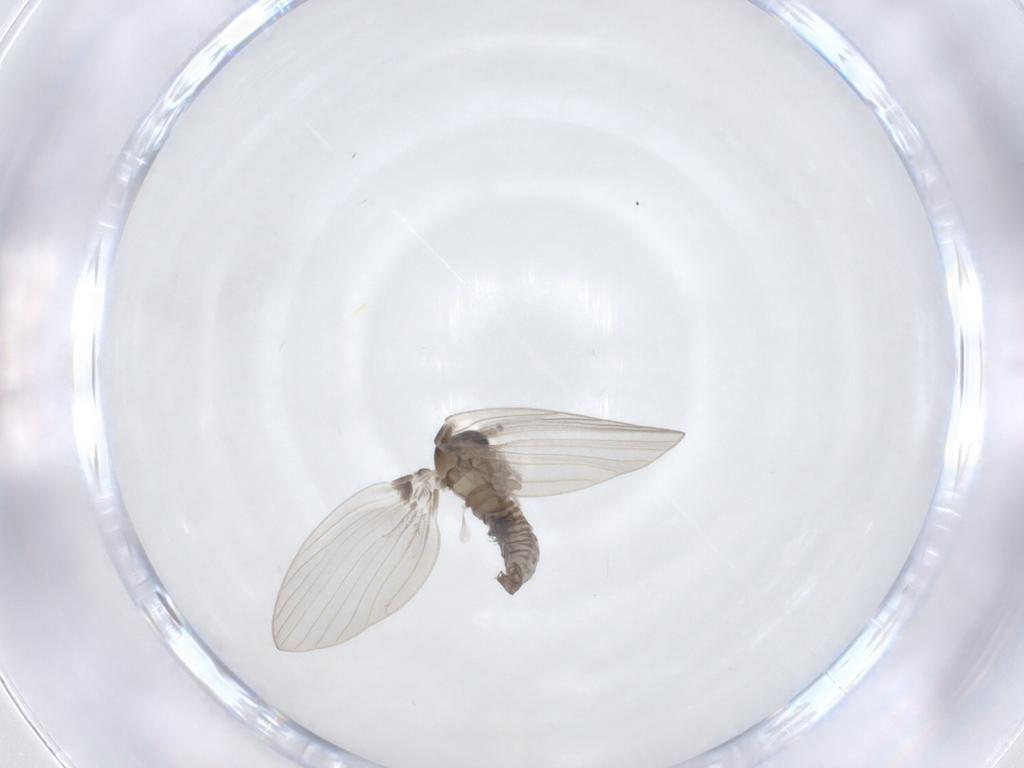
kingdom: Animalia
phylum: Arthropoda
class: Insecta
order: Diptera
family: Psychodidae
